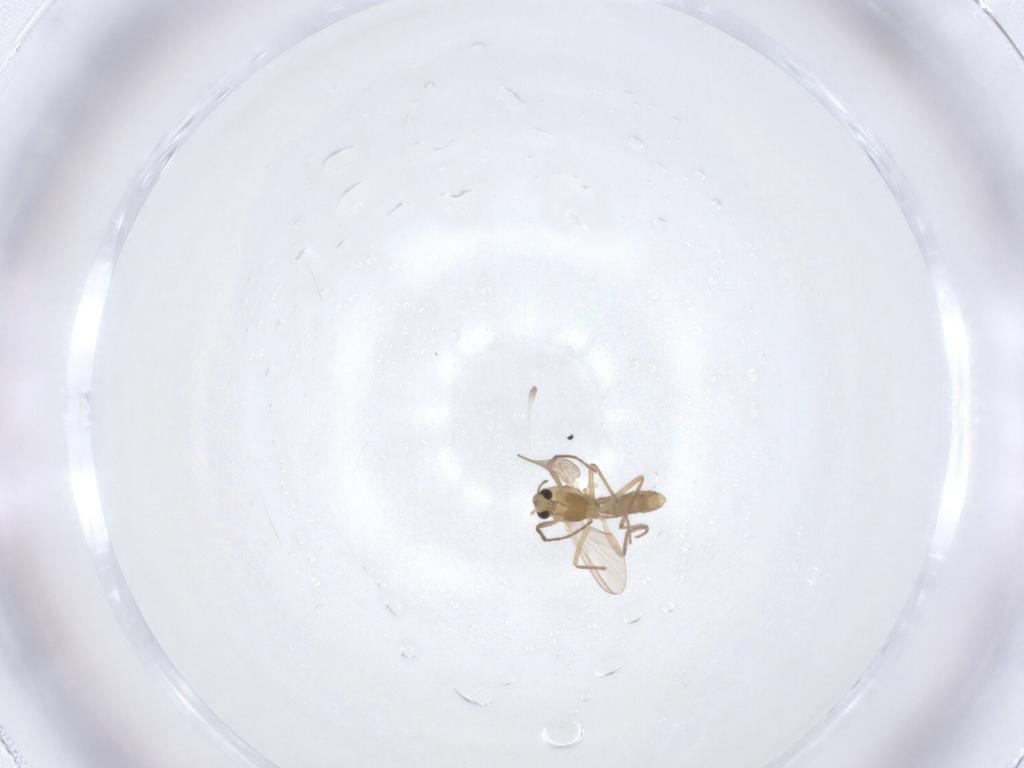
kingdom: Animalia
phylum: Arthropoda
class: Insecta
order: Diptera
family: Chironomidae
